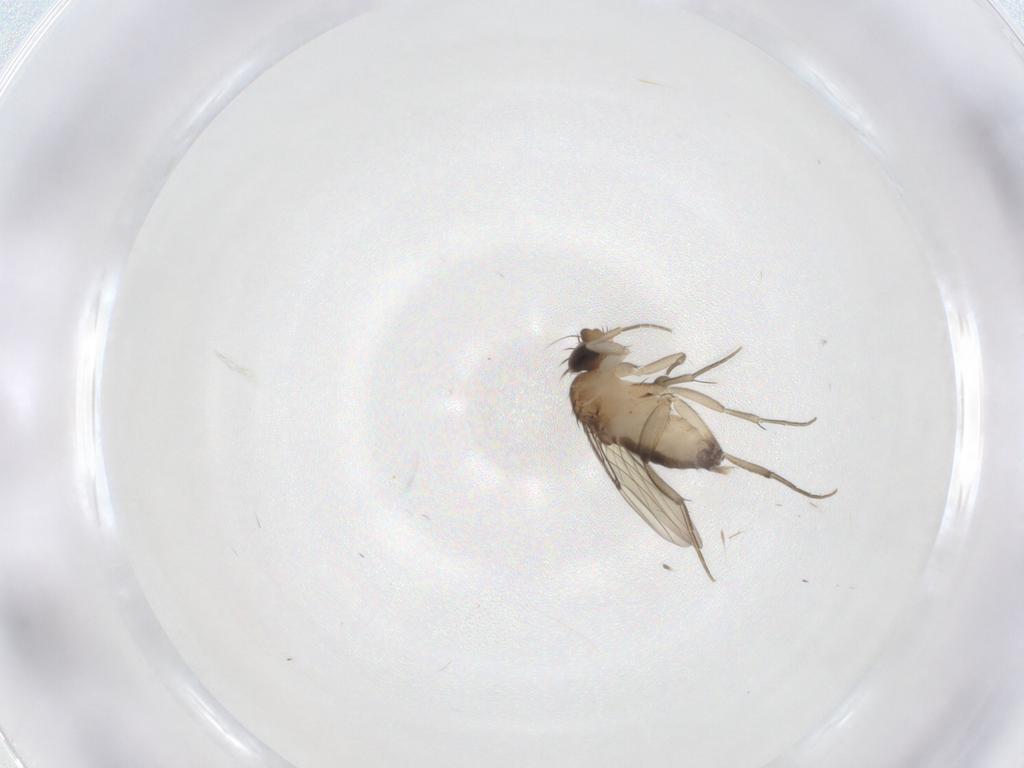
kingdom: Animalia
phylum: Arthropoda
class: Insecta
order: Diptera
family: Phoridae
